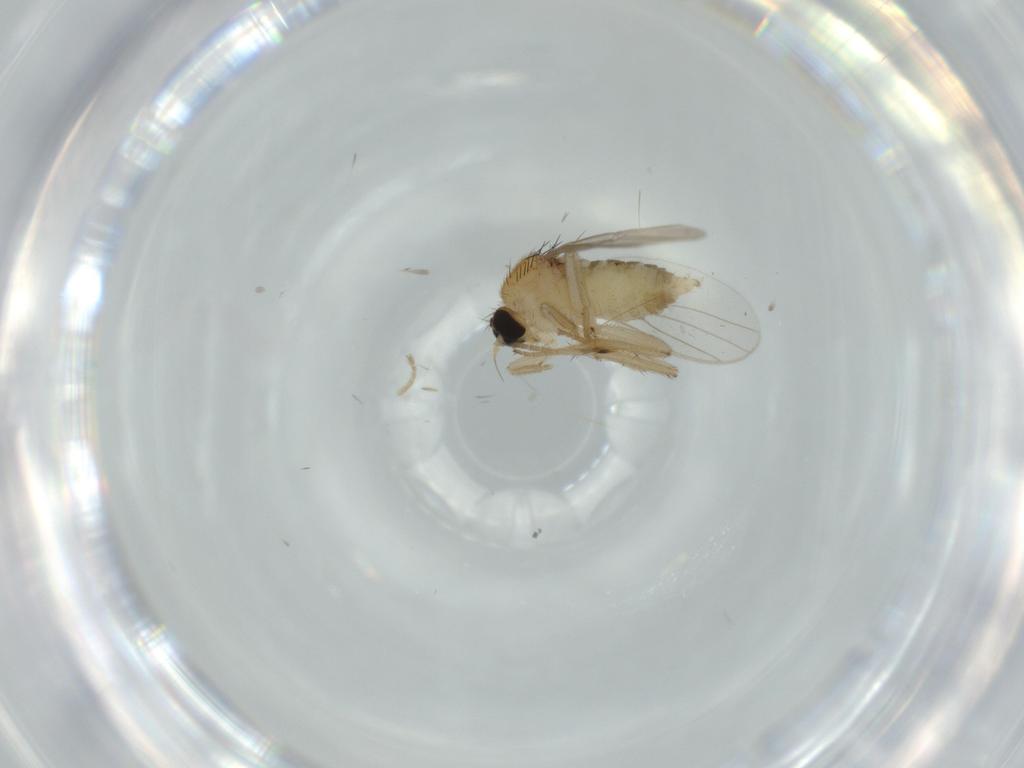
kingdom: Animalia
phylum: Arthropoda
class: Insecta
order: Diptera
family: Hybotidae
